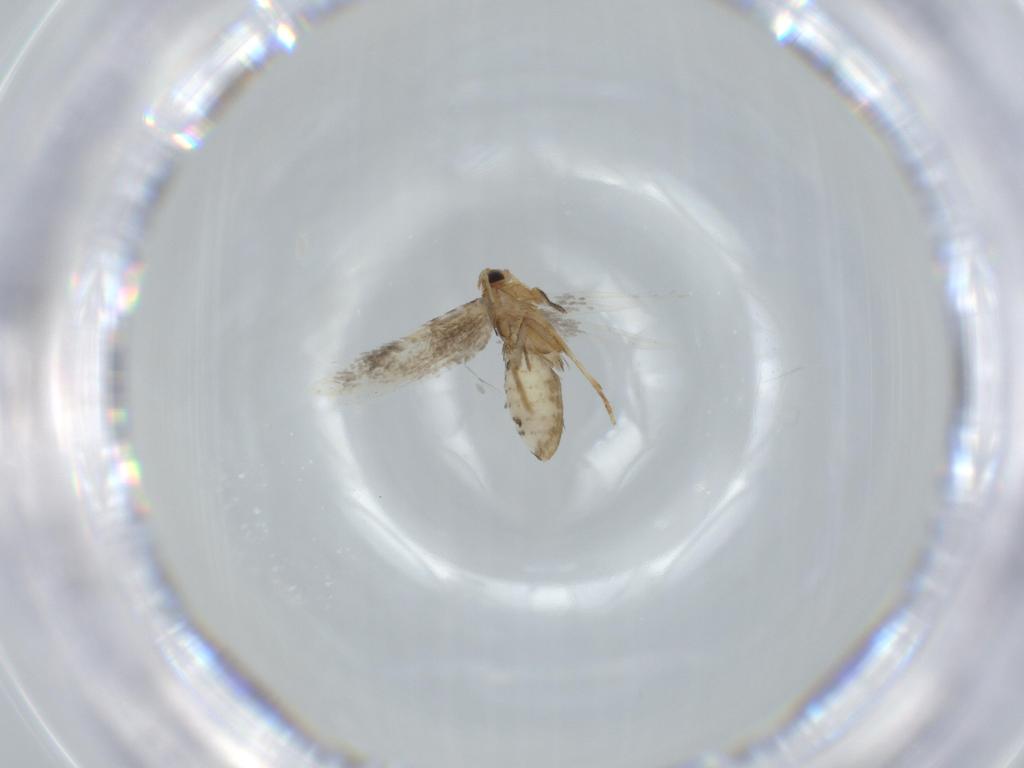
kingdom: Animalia
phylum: Arthropoda
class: Insecta
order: Lepidoptera
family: Nepticulidae
